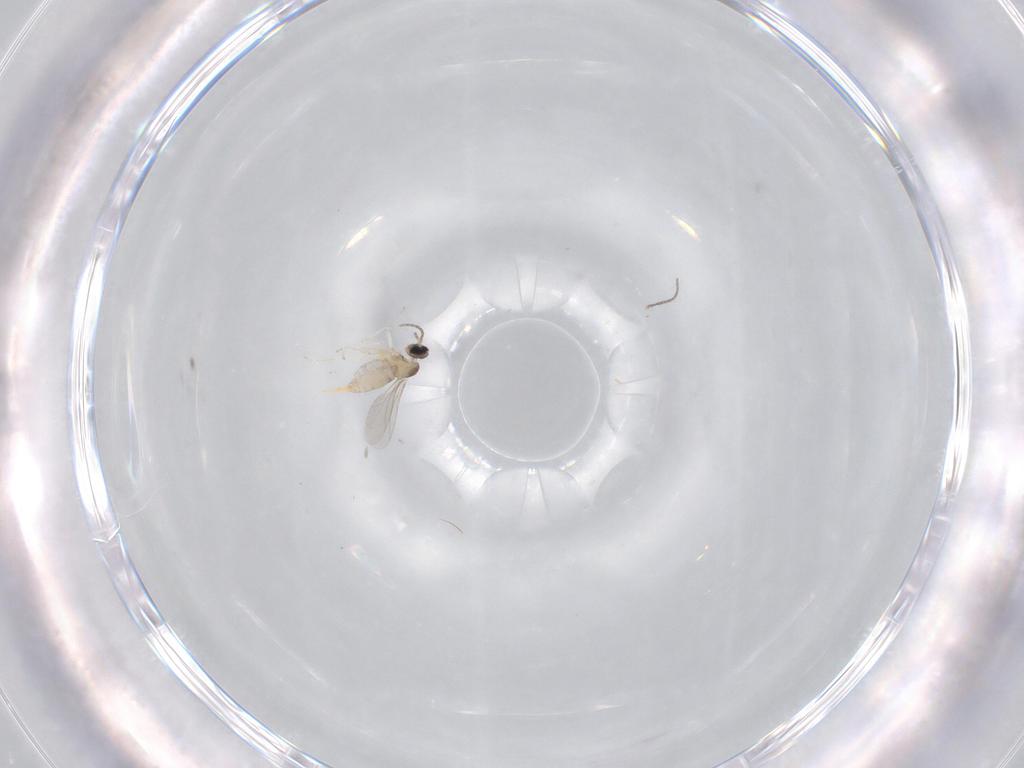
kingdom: Animalia
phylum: Arthropoda
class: Insecta
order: Diptera
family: Cecidomyiidae
